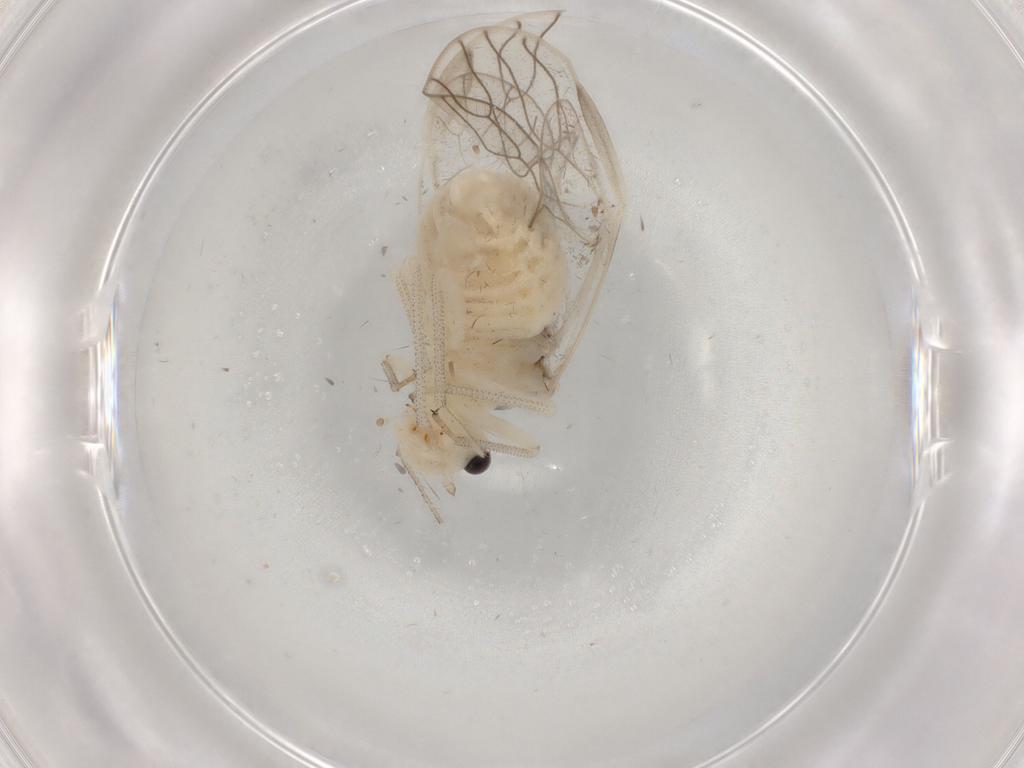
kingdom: Animalia
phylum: Arthropoda
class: Insecta
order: Psocodea
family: Amphipsocidae
